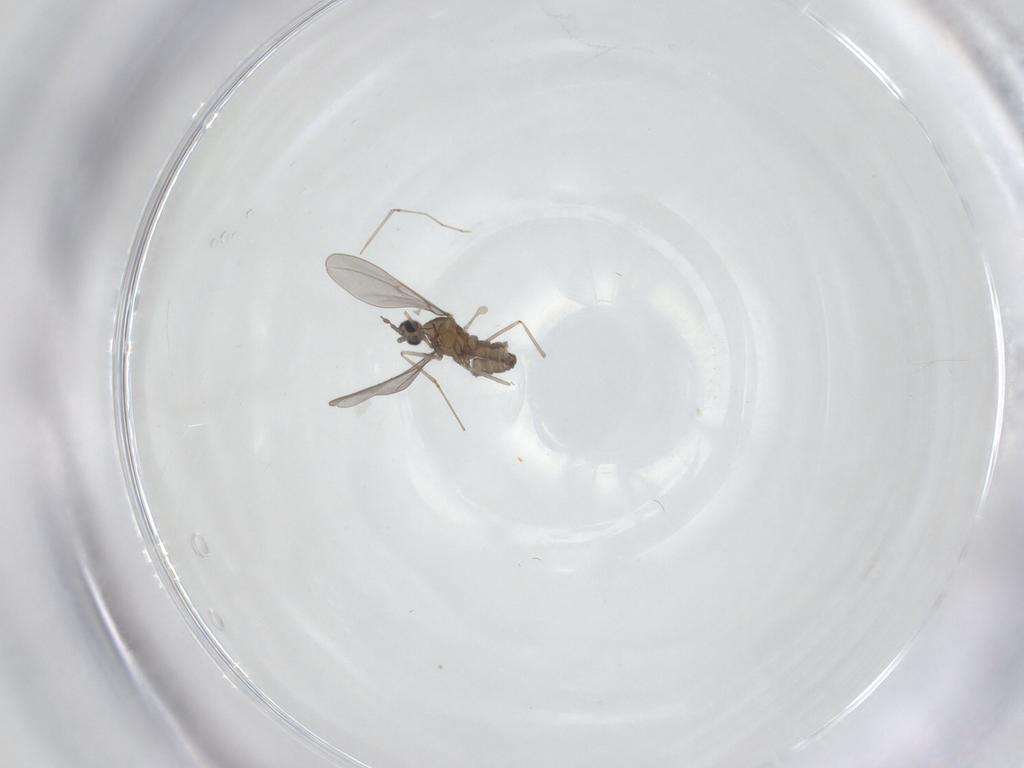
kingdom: Animalia
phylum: Arthropoda
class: Insecta
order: Diptera
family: Cecidomyiidae
